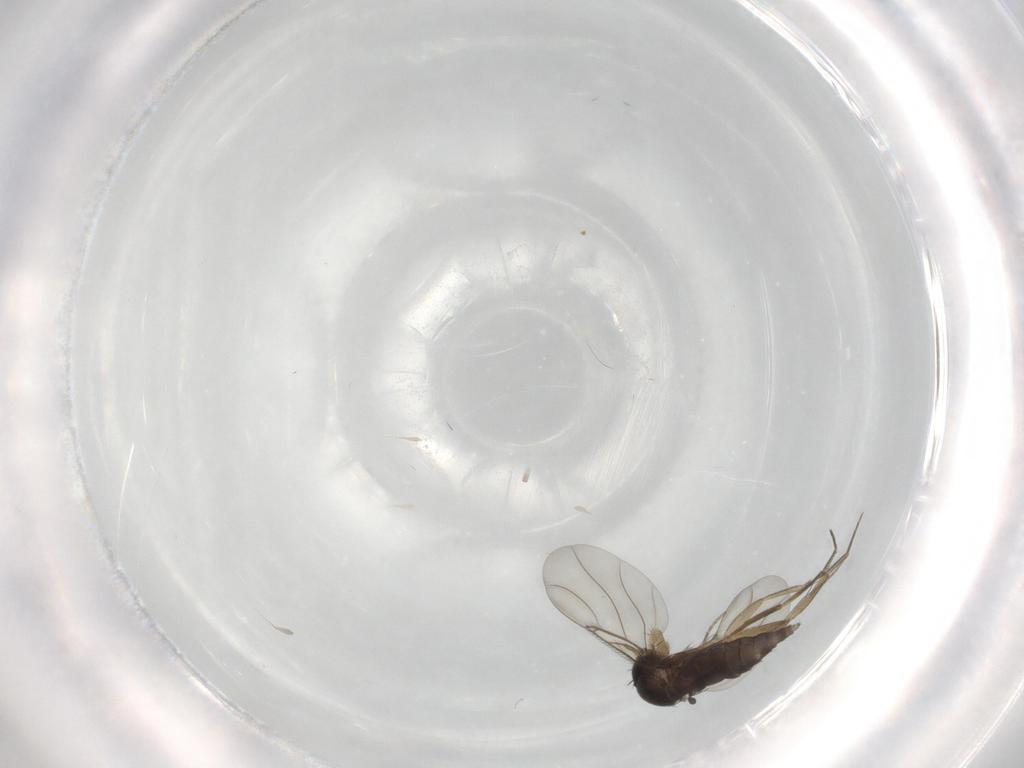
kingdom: Animalia
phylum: Arthropoda
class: Insecta
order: Diptera
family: Phoridae
